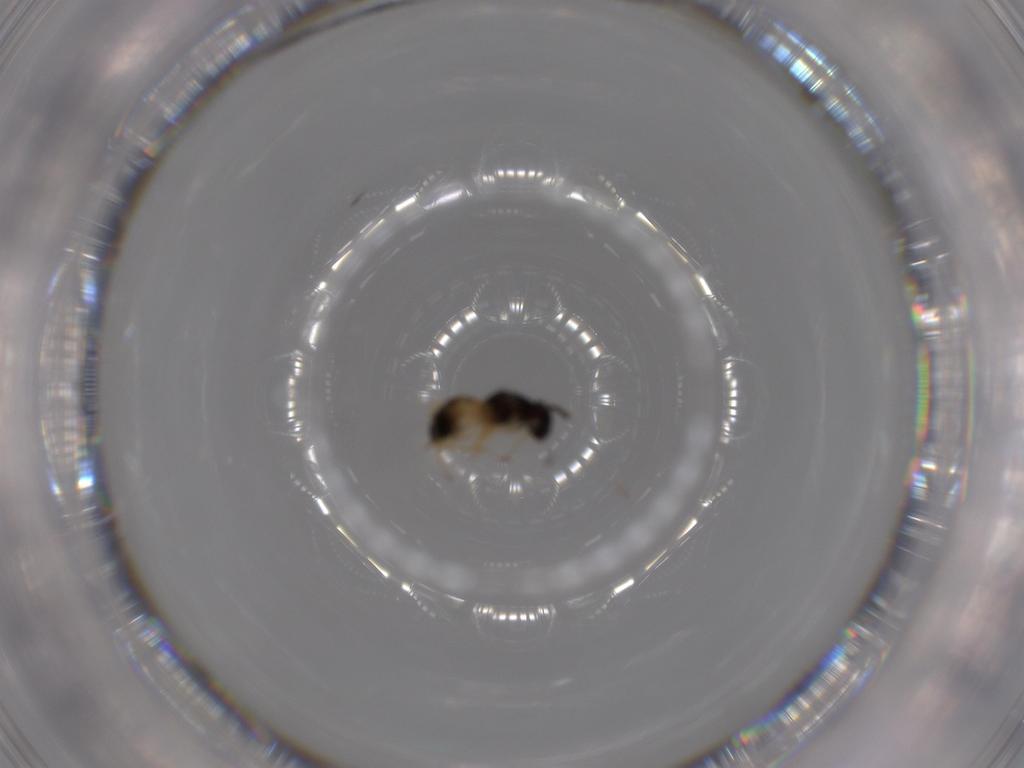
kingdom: Animalia
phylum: Arthropoda
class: Insecta
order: Hymenoptera
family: Eulophidae
